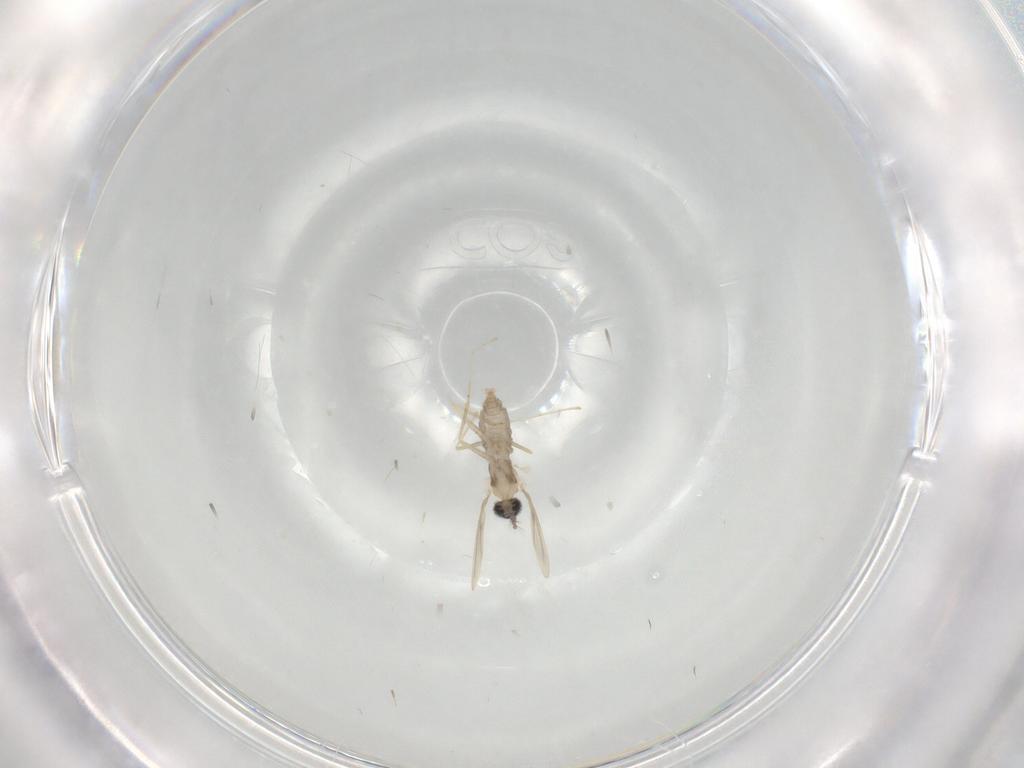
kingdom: Animalia
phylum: Arthropoda
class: Insecta
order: Diptera
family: Cecidomyiidae
